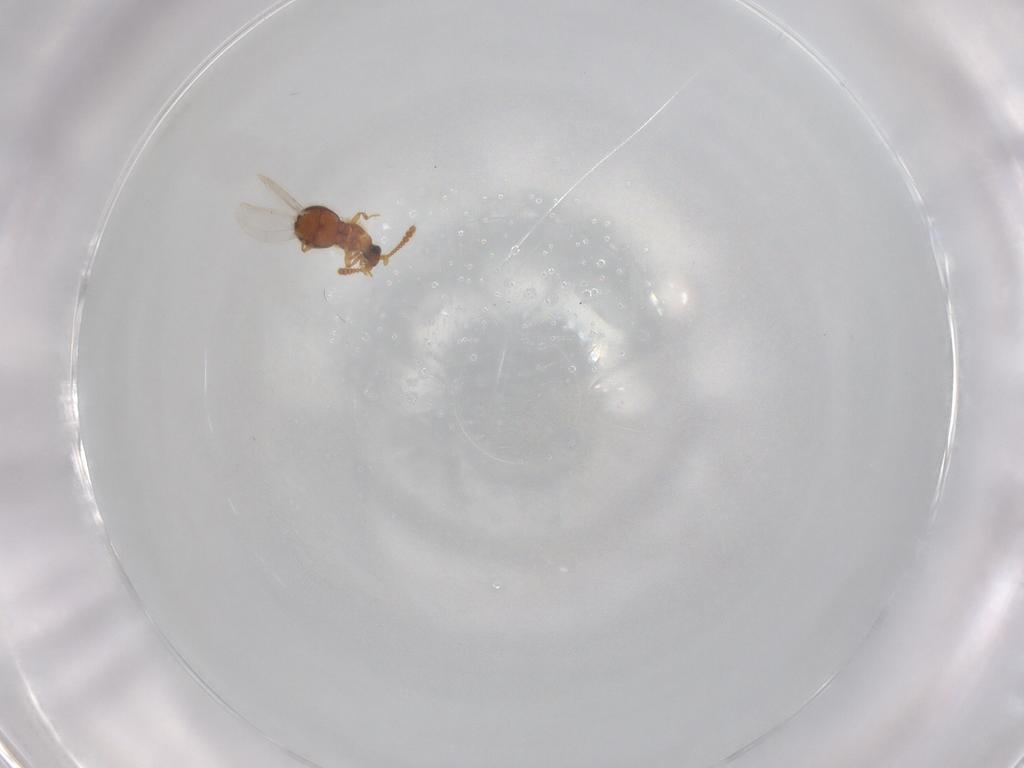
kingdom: Animalia
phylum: Arthropoda
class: Insecta
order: Coleoptera
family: Staphylinidae
